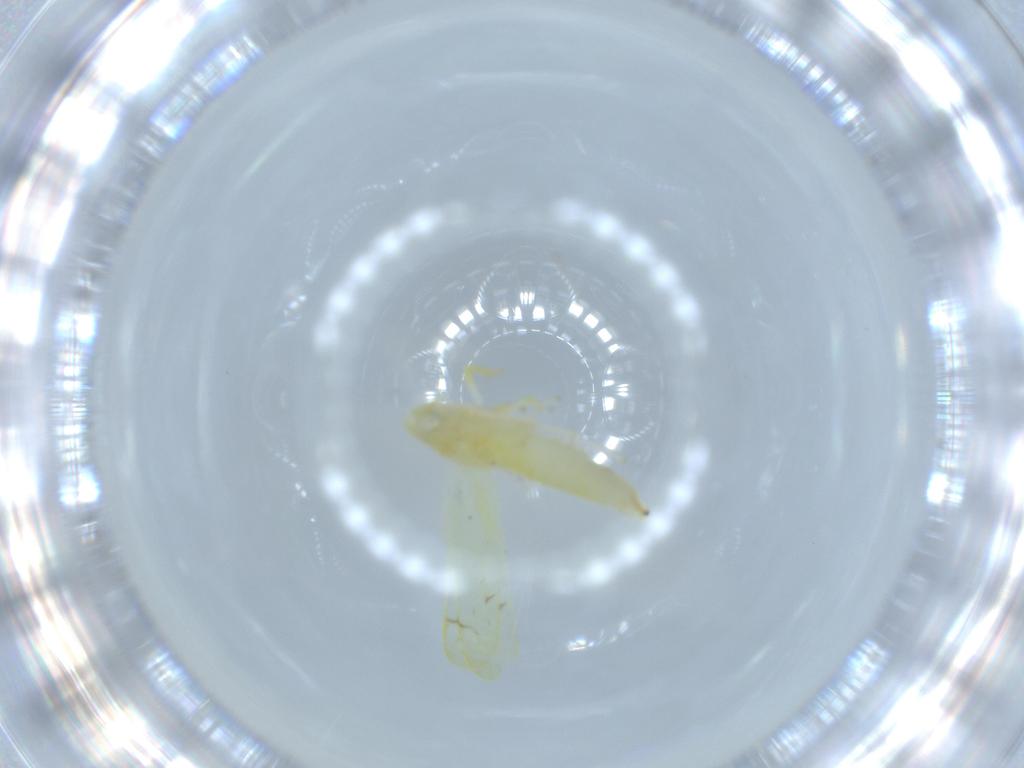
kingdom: Animalia
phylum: Arthropoda
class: Insecta
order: Hemiptera
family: Cicadellidae
